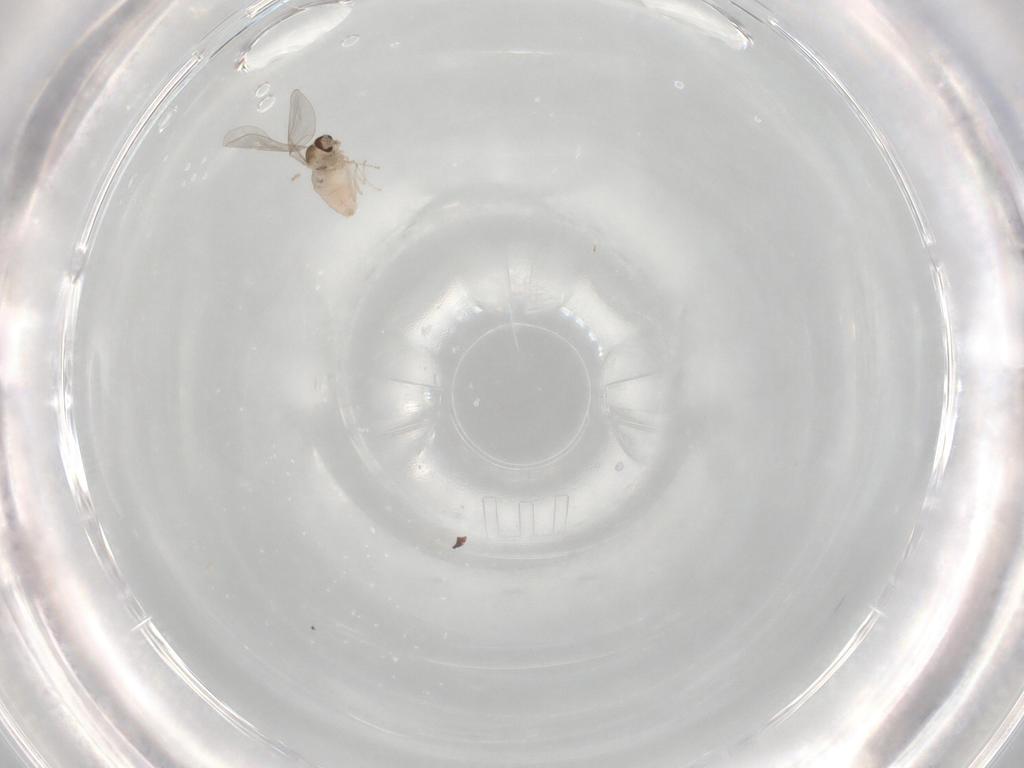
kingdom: Animalia
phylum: Arthropoda
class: Insecta
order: Diptera
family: Cecidomyiidae
